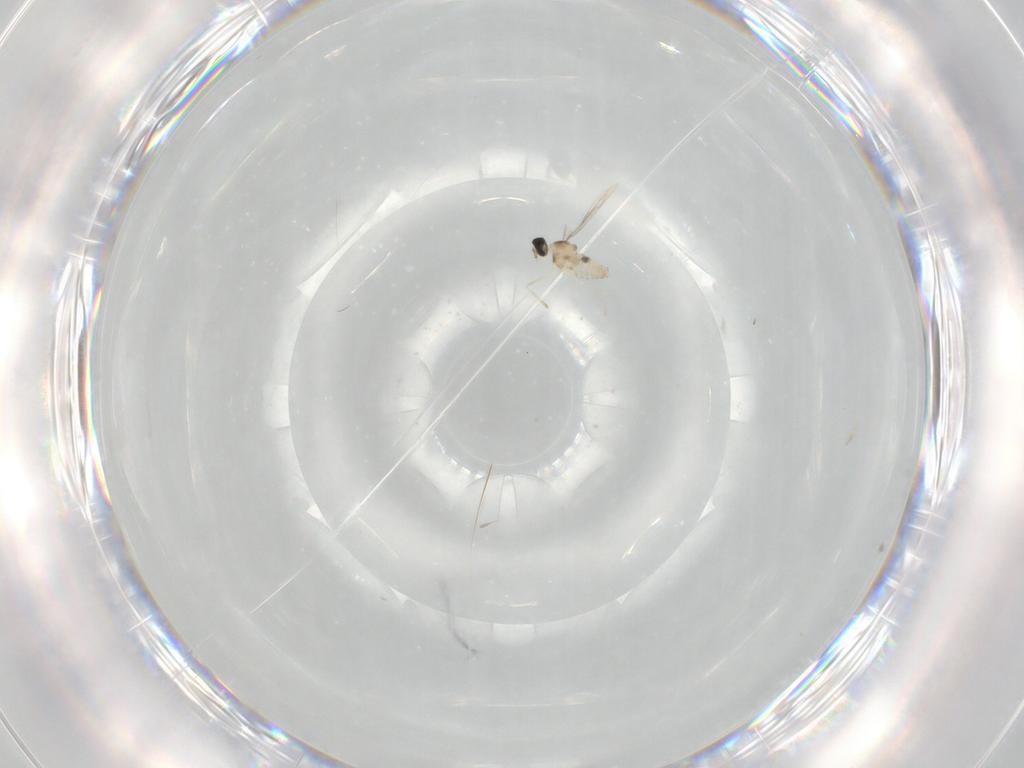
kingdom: Animalia
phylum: Arthropoda
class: Insecta
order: Diptera
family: Cecidomyiidae
